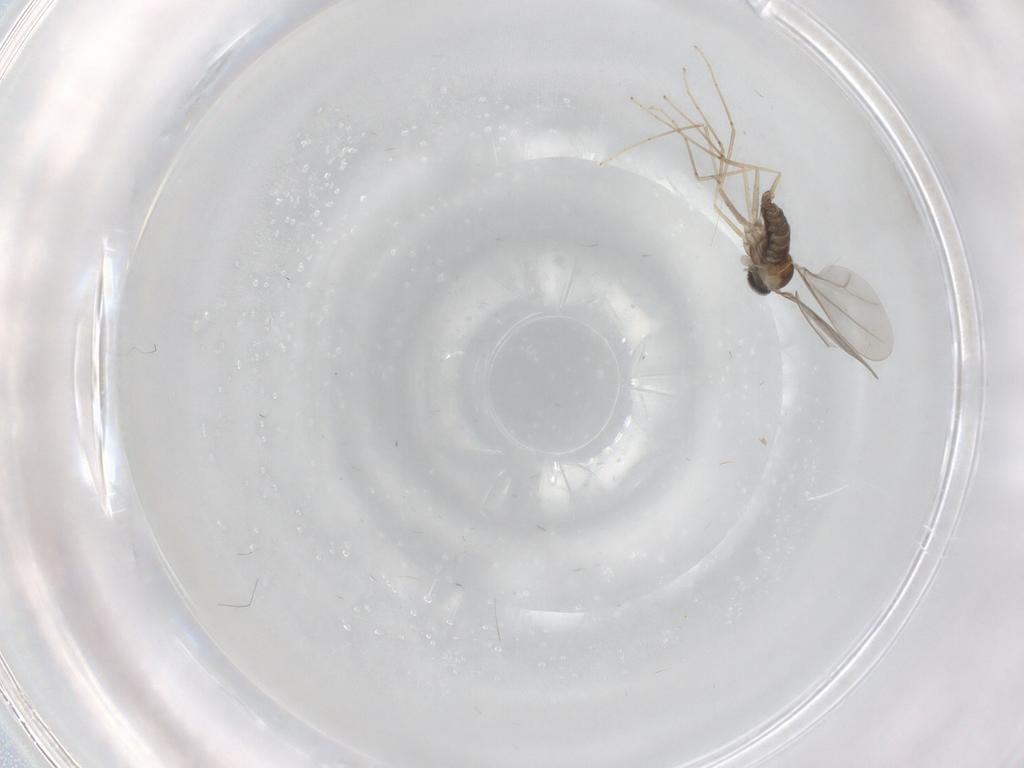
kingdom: Animalia
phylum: Arthropoda
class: Insecta
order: Diptera
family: Cecidomyiidae
